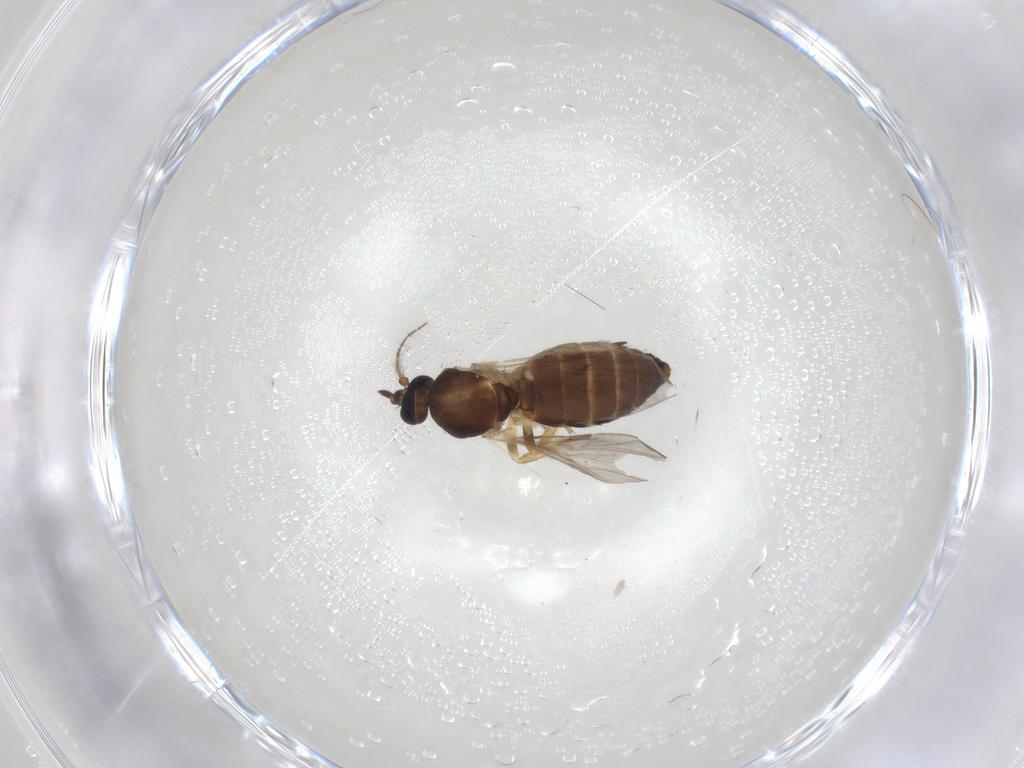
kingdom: Animalia
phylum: Arthropoda
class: Insecta
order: Diptera
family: Ceratopogonidae
